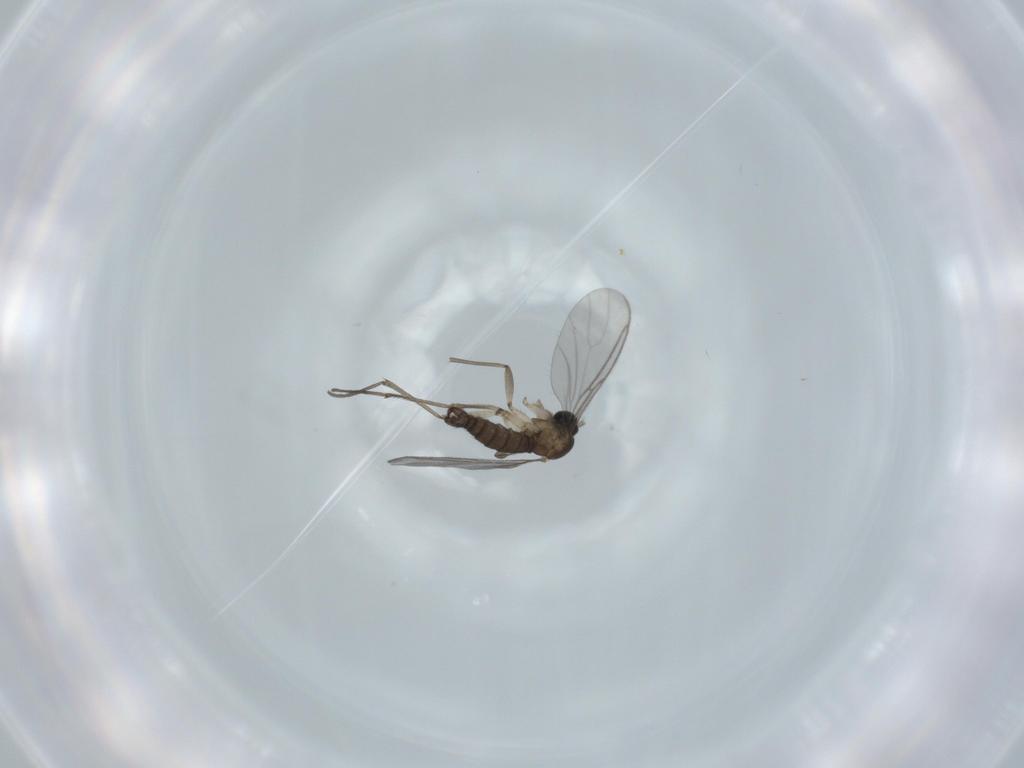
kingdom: Animalia
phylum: Arthropoda
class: Insecta
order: Diptera
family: Sciaridae
